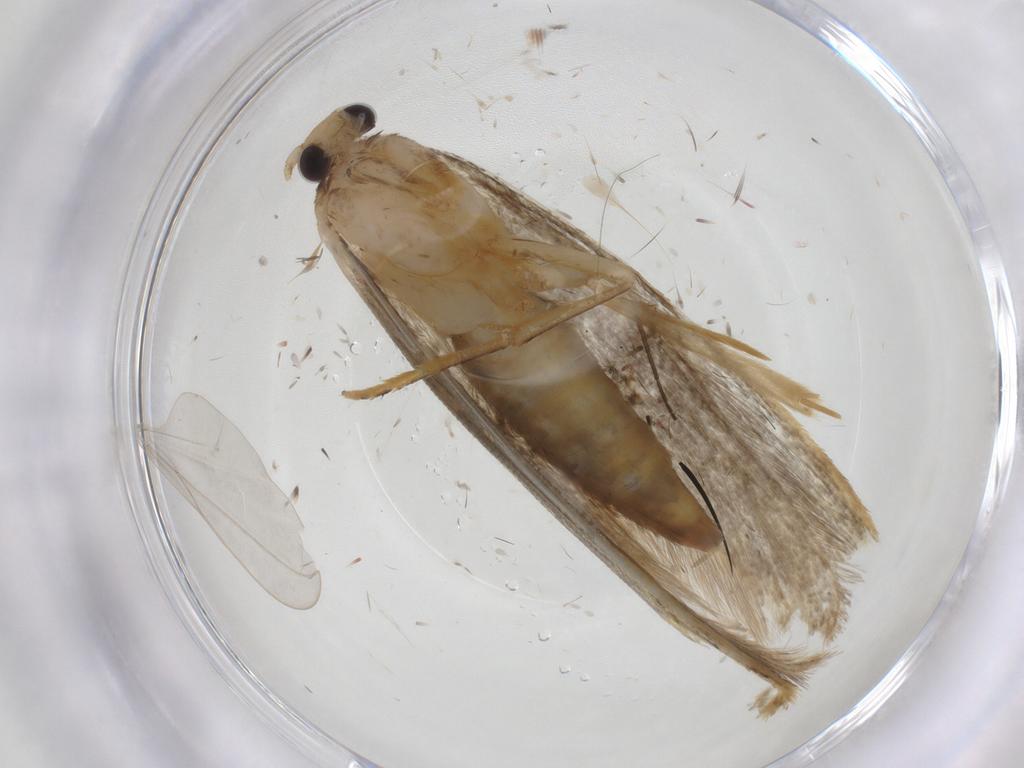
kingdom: Animalia
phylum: Arthropoda
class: Insecta
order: Lepidoptera
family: Tineidae
